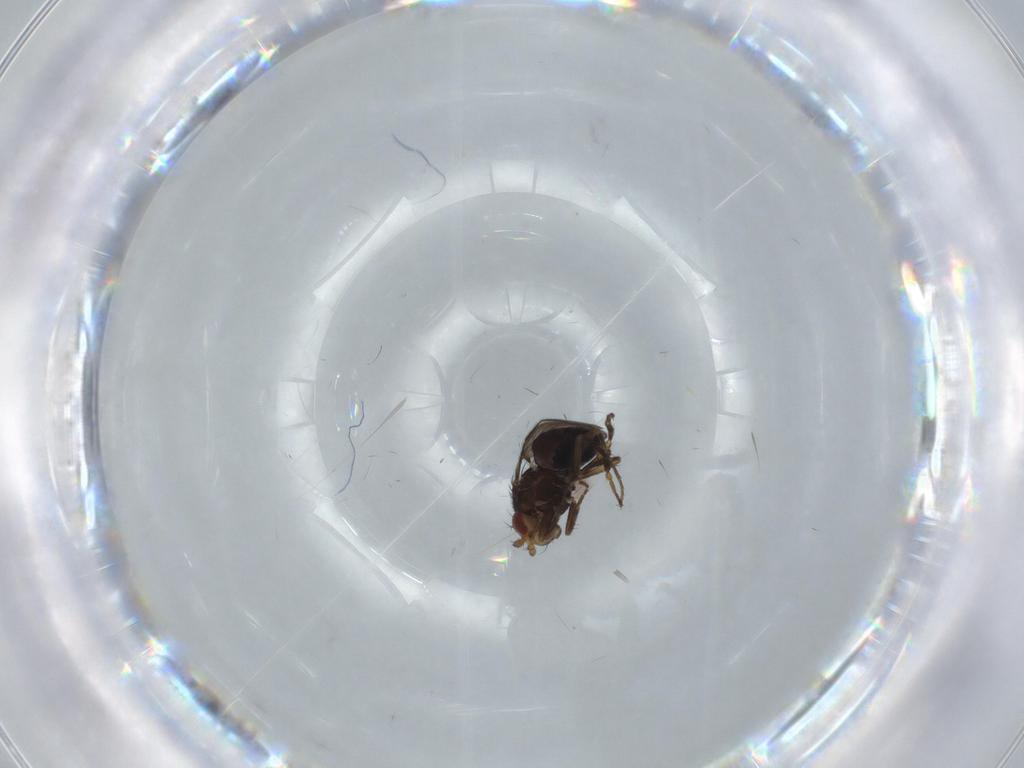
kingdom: Animalia
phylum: Arthropoda
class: Insecta
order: Diptera
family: Sphaeroceridae
